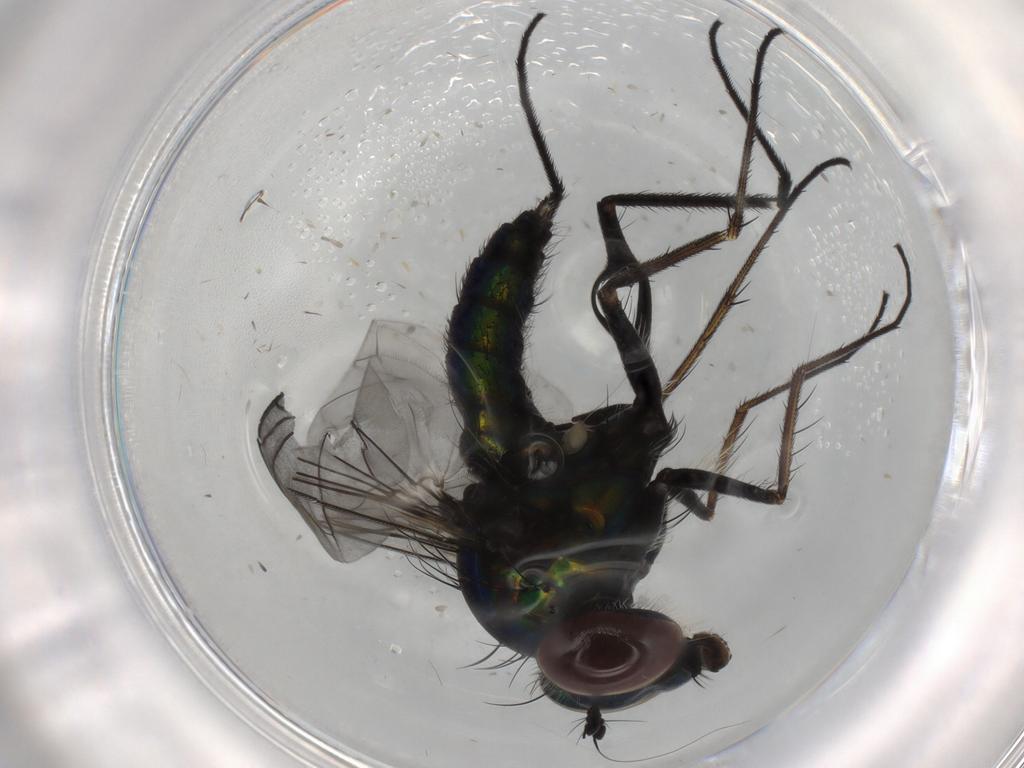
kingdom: Animalia
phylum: Arthropoda
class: Insecta
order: Diptera
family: Dolichopodidae
